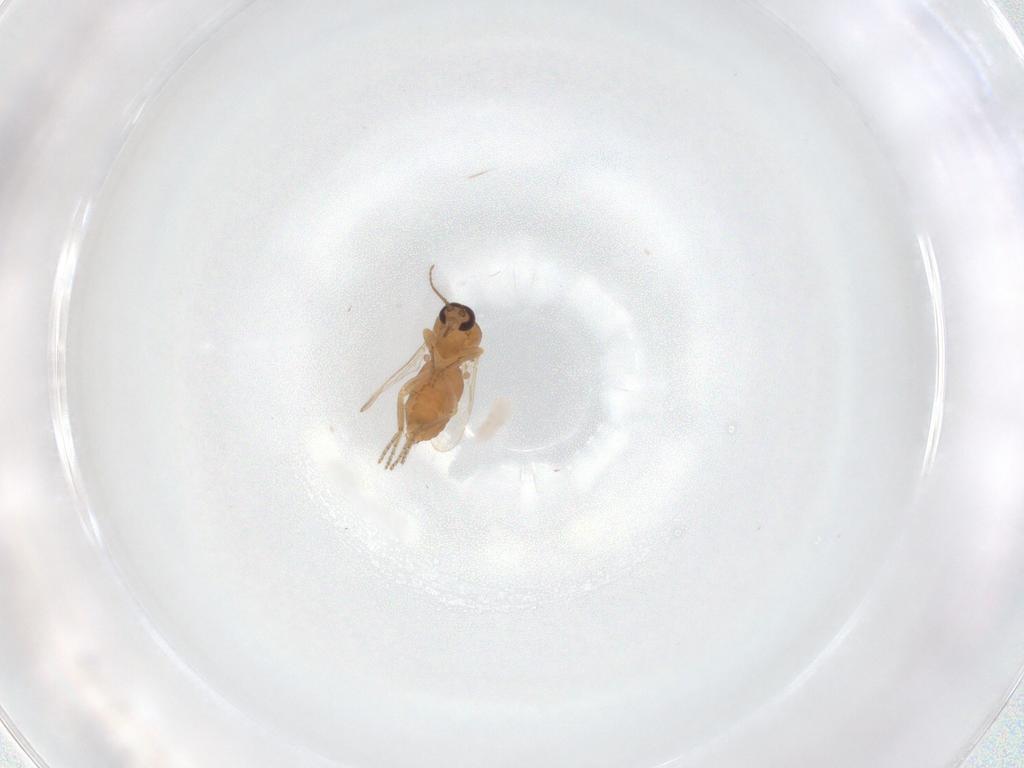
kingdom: Animalia
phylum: Arthropoda
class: Insecta
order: Diptera
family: Ceratopogonidae
